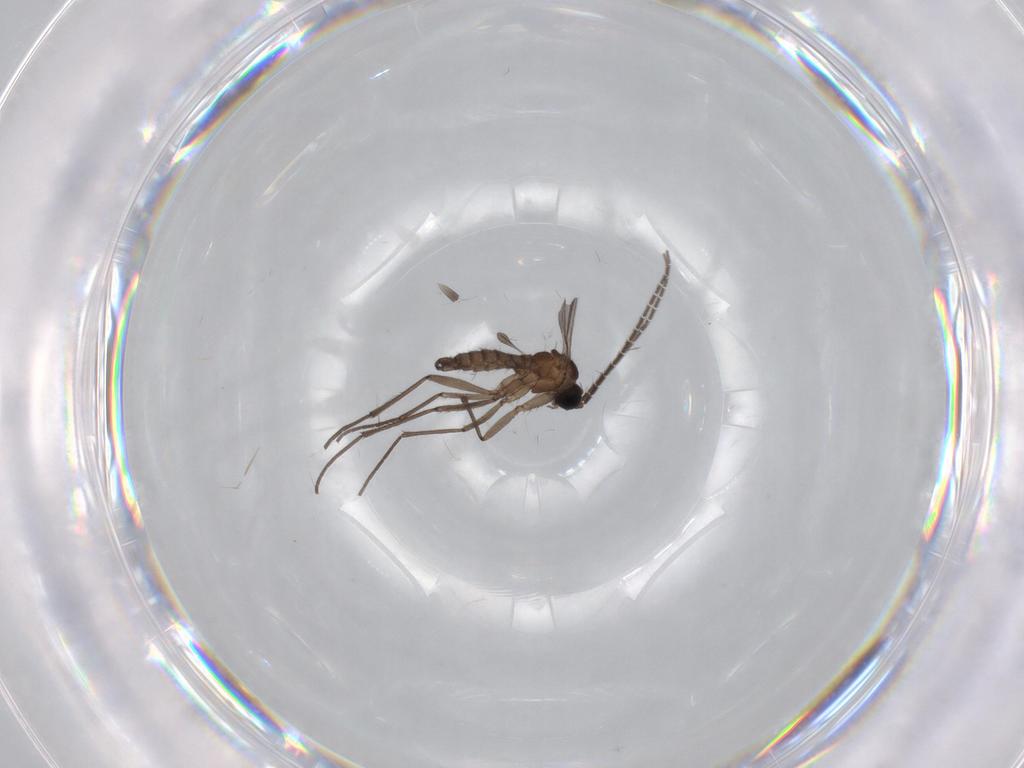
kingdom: Animalia
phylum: Arthropoda
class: Insecta
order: Diptera
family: Sciaridae
